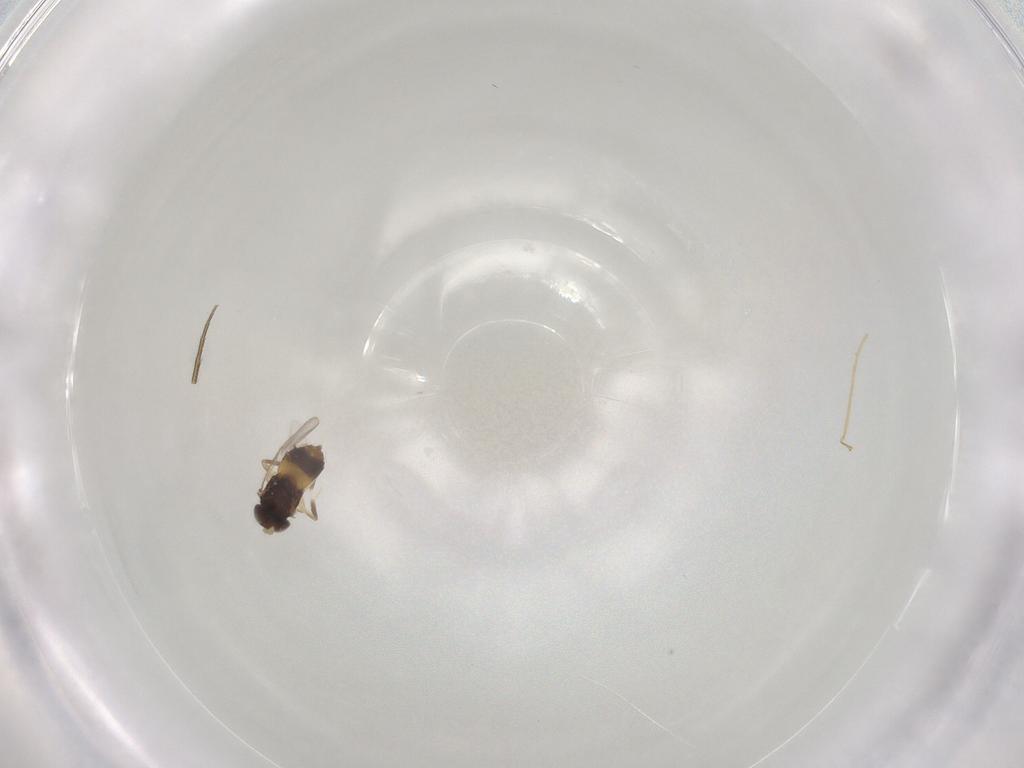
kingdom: Animalia
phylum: Arthropoda
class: Insecta
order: Hymenoptera
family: Aphelinidae
